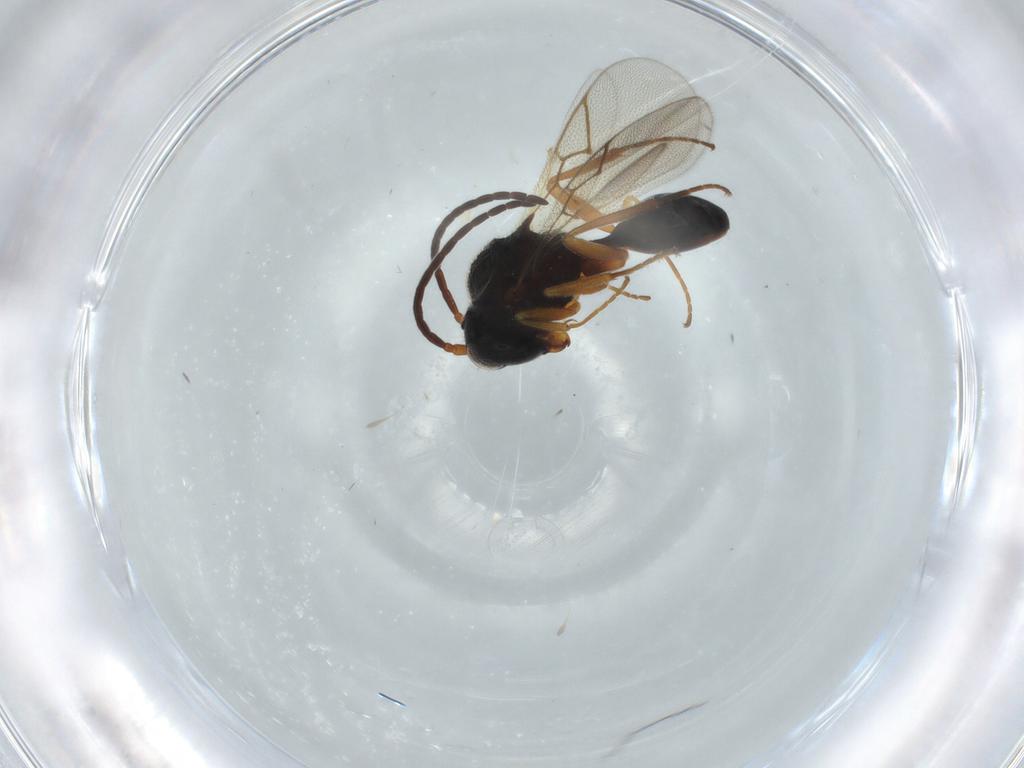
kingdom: Animalia
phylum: Arthropoda
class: Insecta
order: Hymenoptera
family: Figitidae
